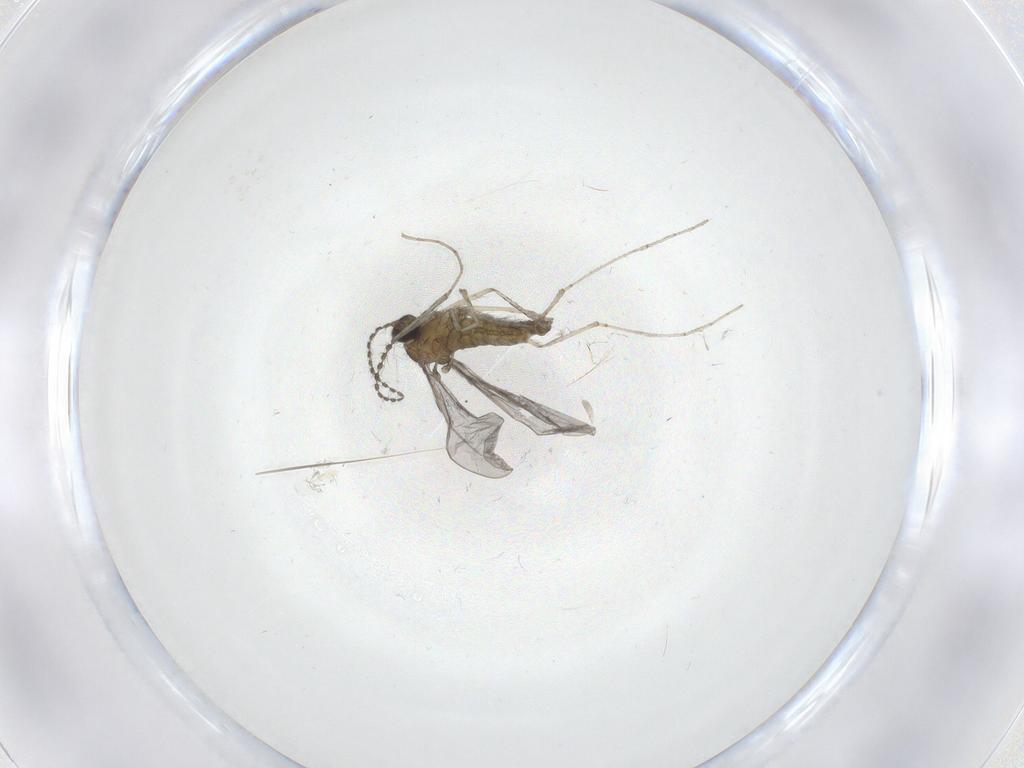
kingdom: Animalia
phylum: Arthropoda
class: Insecta
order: Diptera
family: Cecidomyiidae
